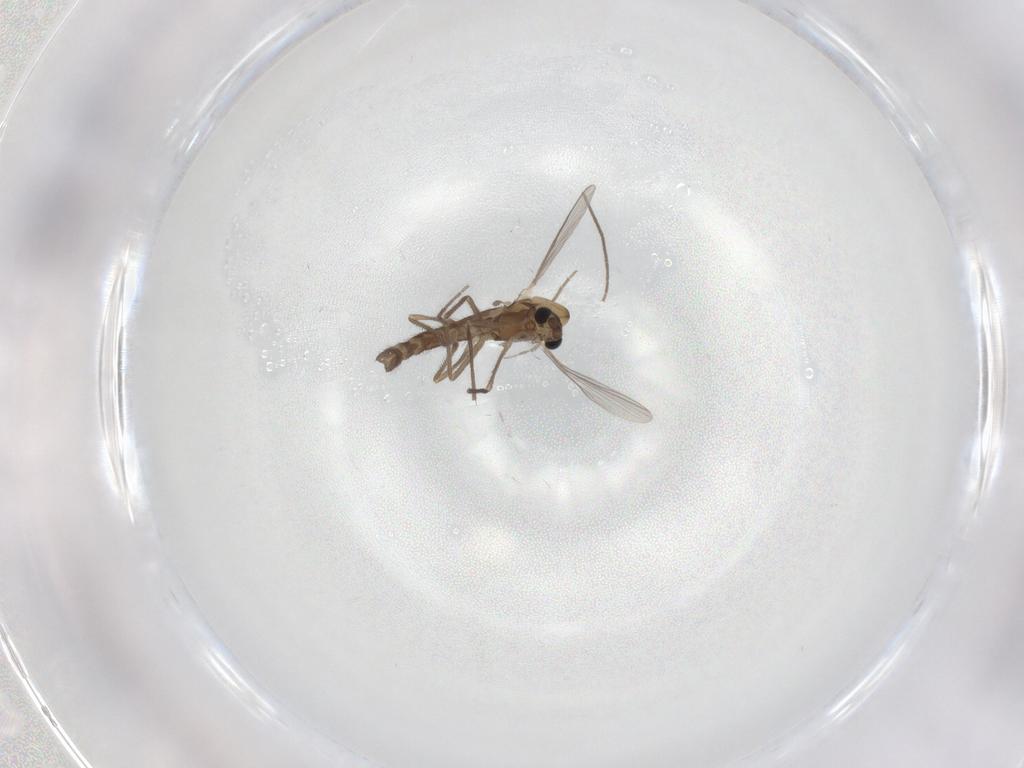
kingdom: Animalia
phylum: Arthropoda
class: Insecta
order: Diptera
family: Chironomidae
